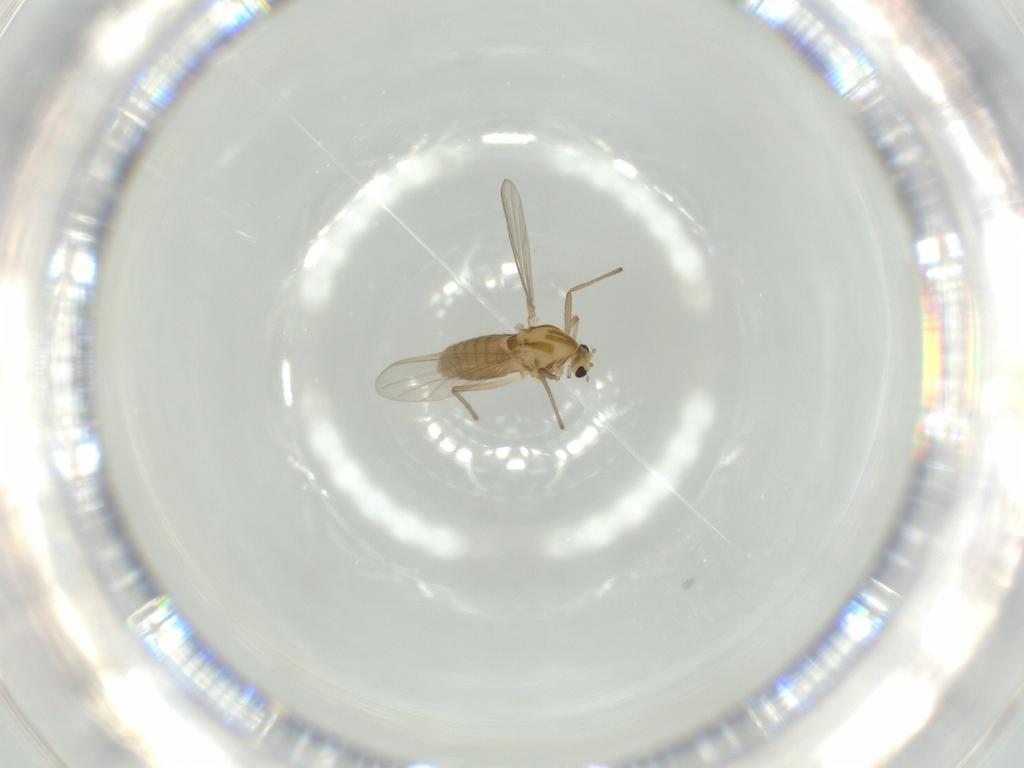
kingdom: Animalia
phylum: Arthropoda
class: Insecta
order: Diptera
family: Chironomidae
